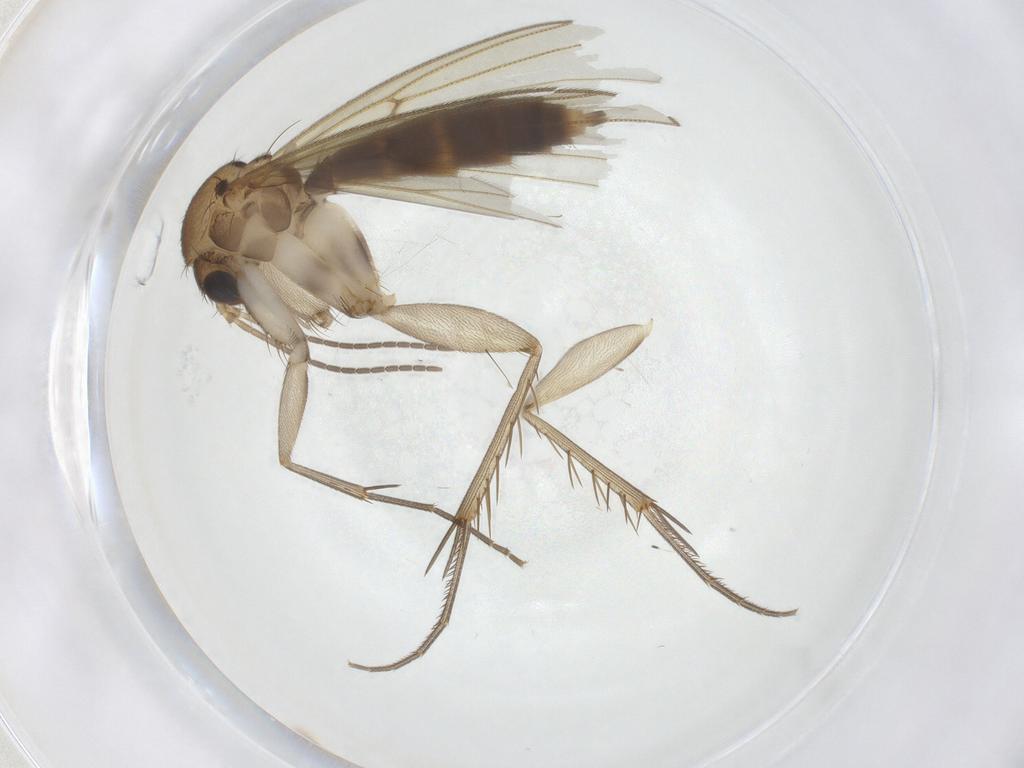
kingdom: Animalia
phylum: Arthropoda
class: Insecta
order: Diptera
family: Mycetophilidae
